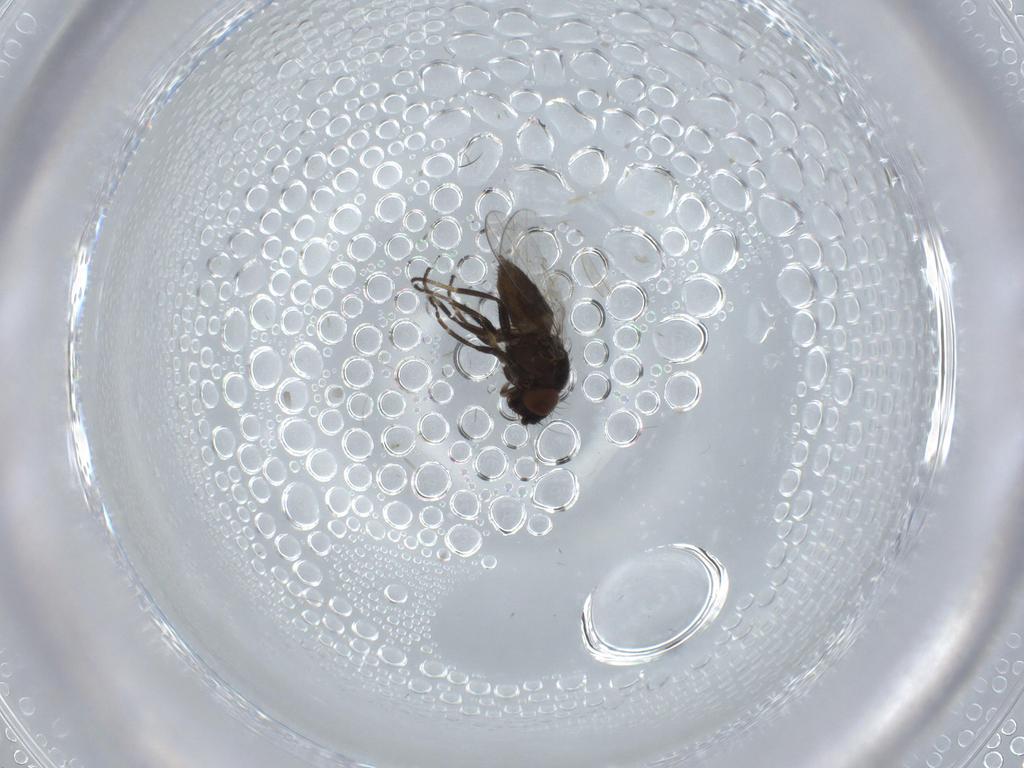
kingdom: Animalia
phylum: Arthropoda
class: Insecta
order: Diptera
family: Milichiidae
